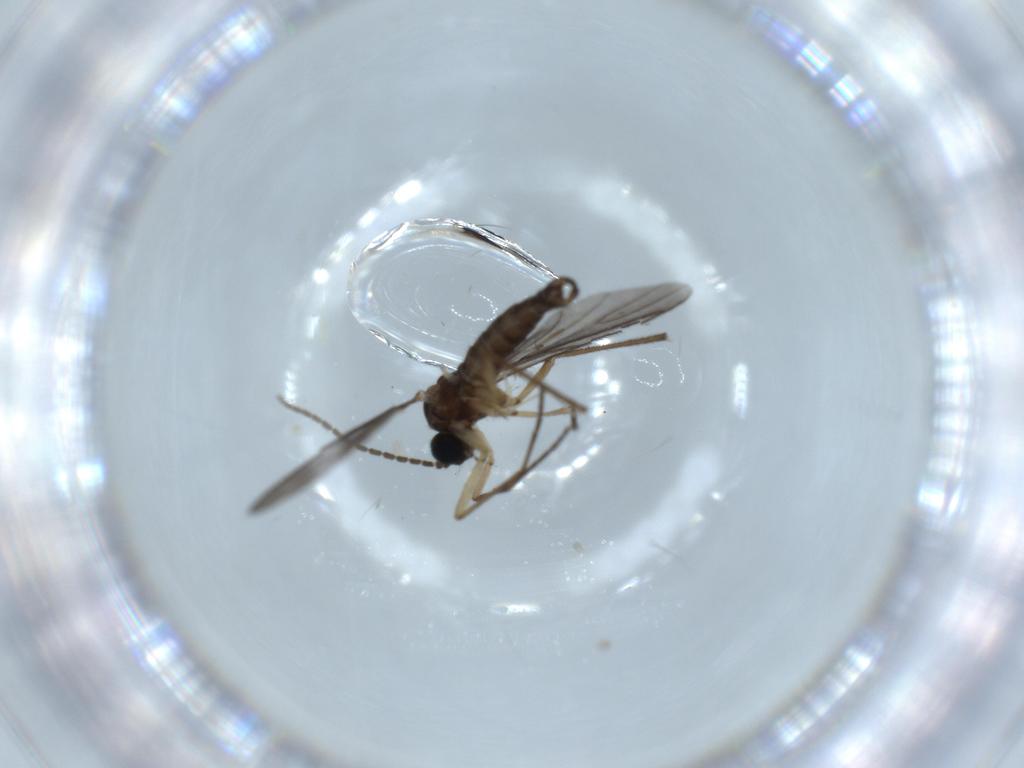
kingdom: Animalia
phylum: Arthropoda
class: Insecta
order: Diptera
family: Sciaridae
